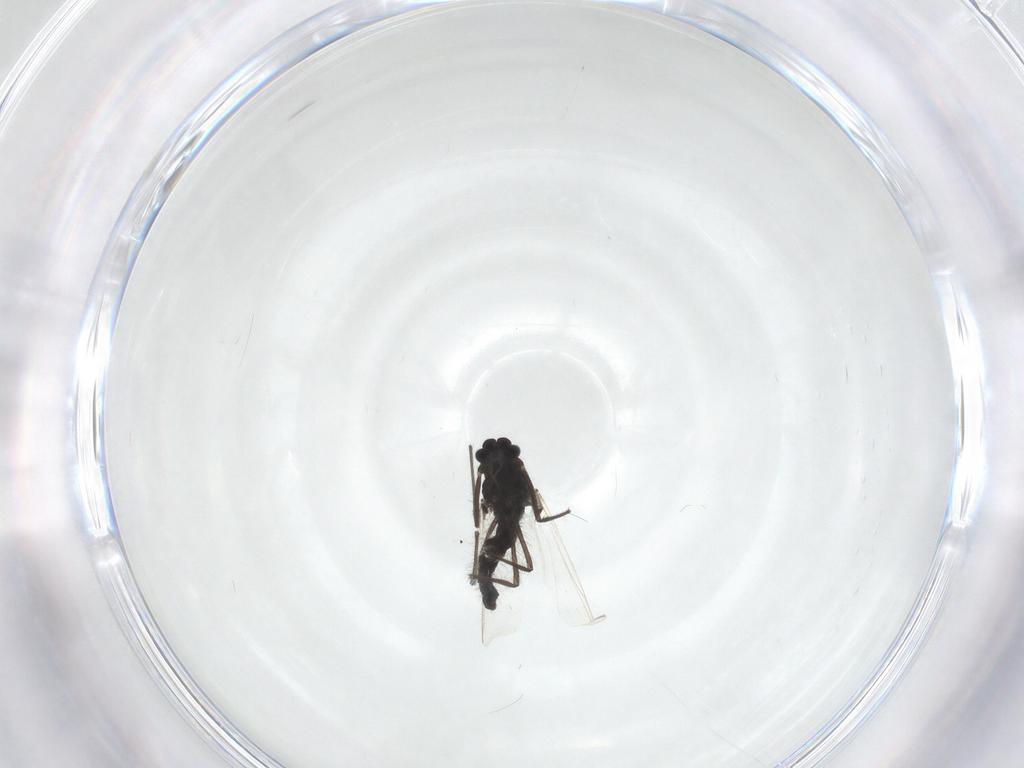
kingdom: Animalia
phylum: Arthropoda
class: Insecta
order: Diptera
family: Chironomidae
